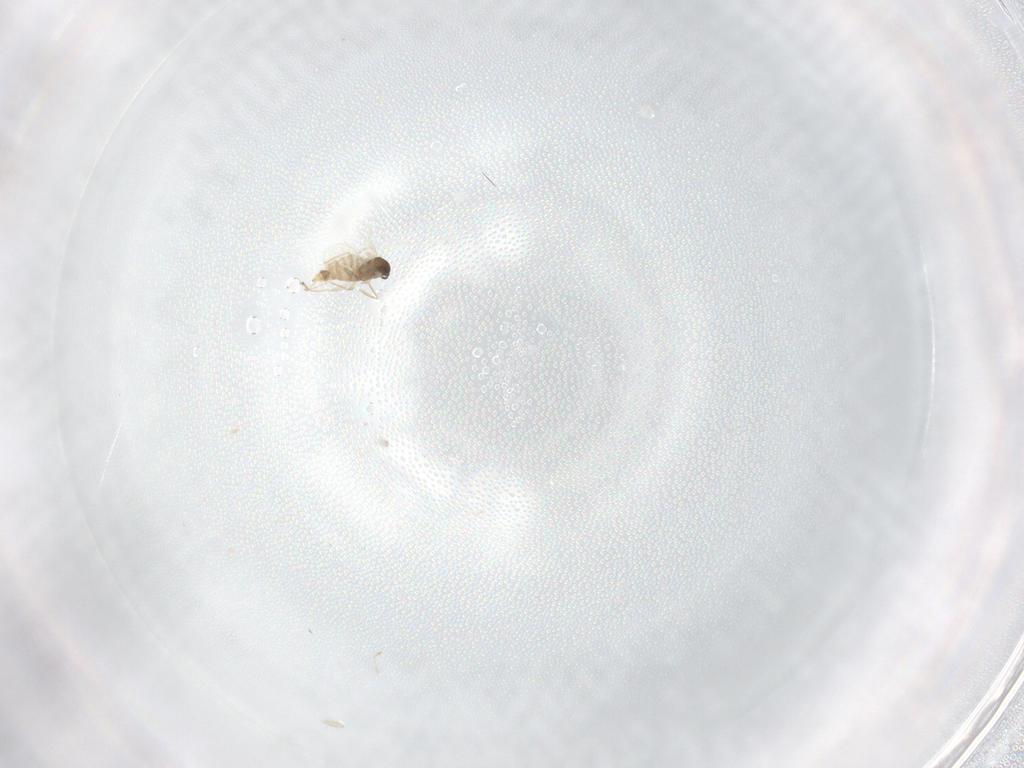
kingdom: Animalia
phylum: Arthropoda
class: Insecta
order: Diptera
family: Cecidomyiidae
